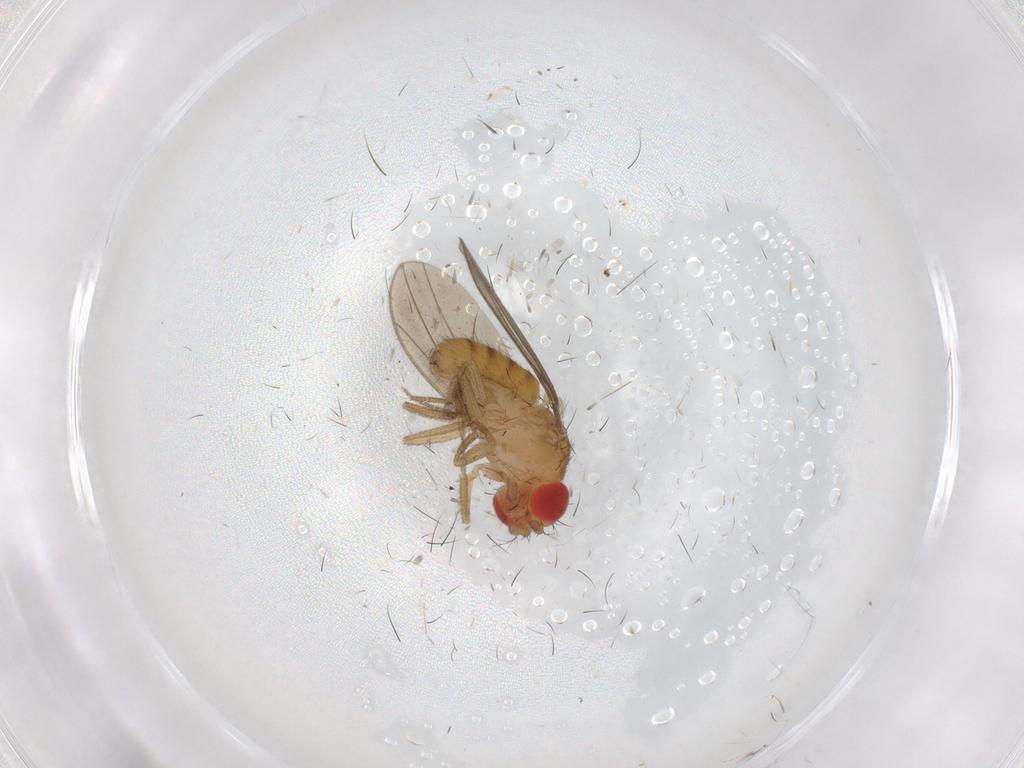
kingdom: Animalia
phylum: Arthropoda
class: Insecta
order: Diptera
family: Drosophilidae
